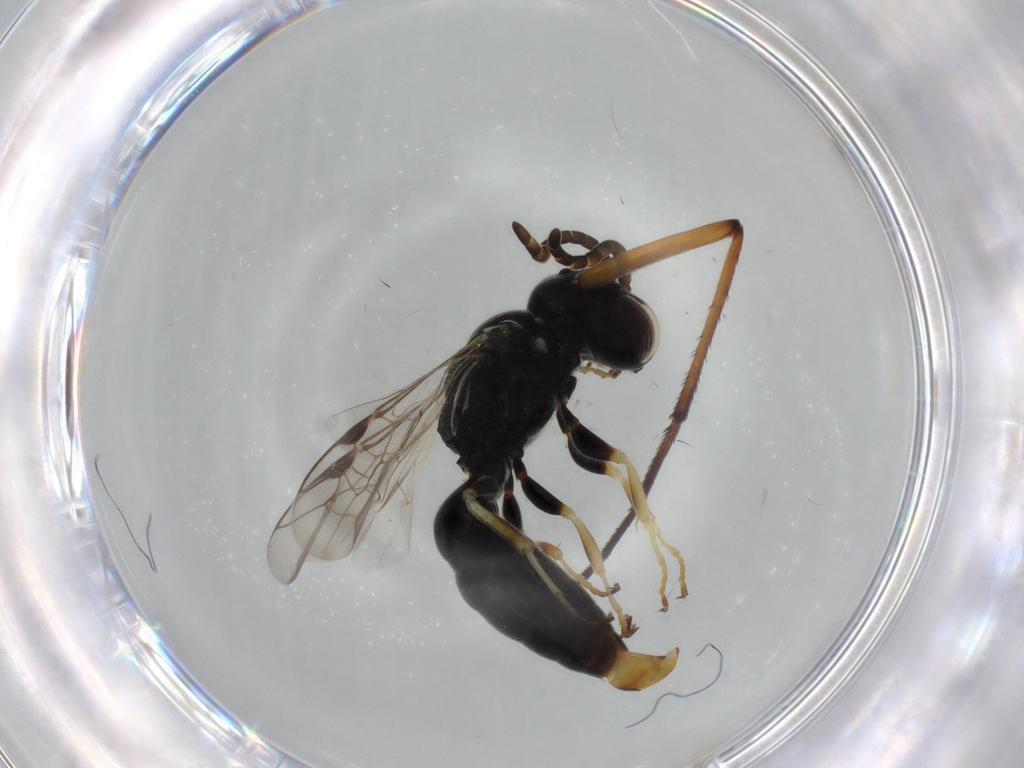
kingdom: Animalia
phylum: Arthropoda
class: Insecta
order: Hymenoptera
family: Crabronidae
